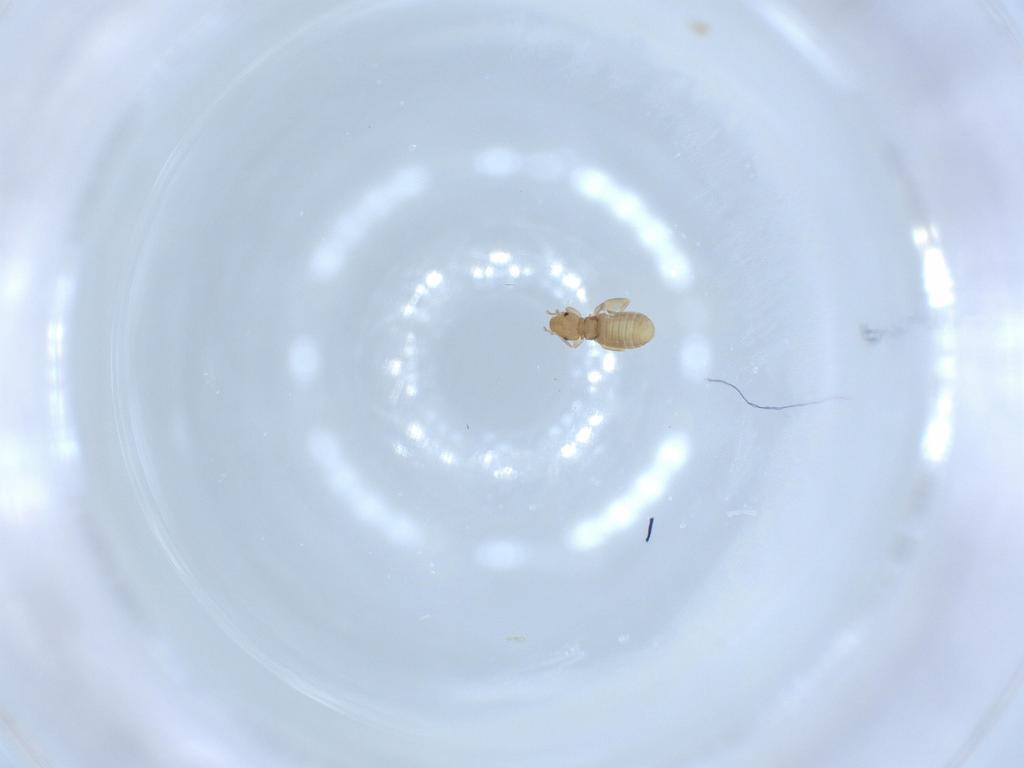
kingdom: Animalia
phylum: Arthropoda
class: Insecta
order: Psocodea
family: Liposcelididae
